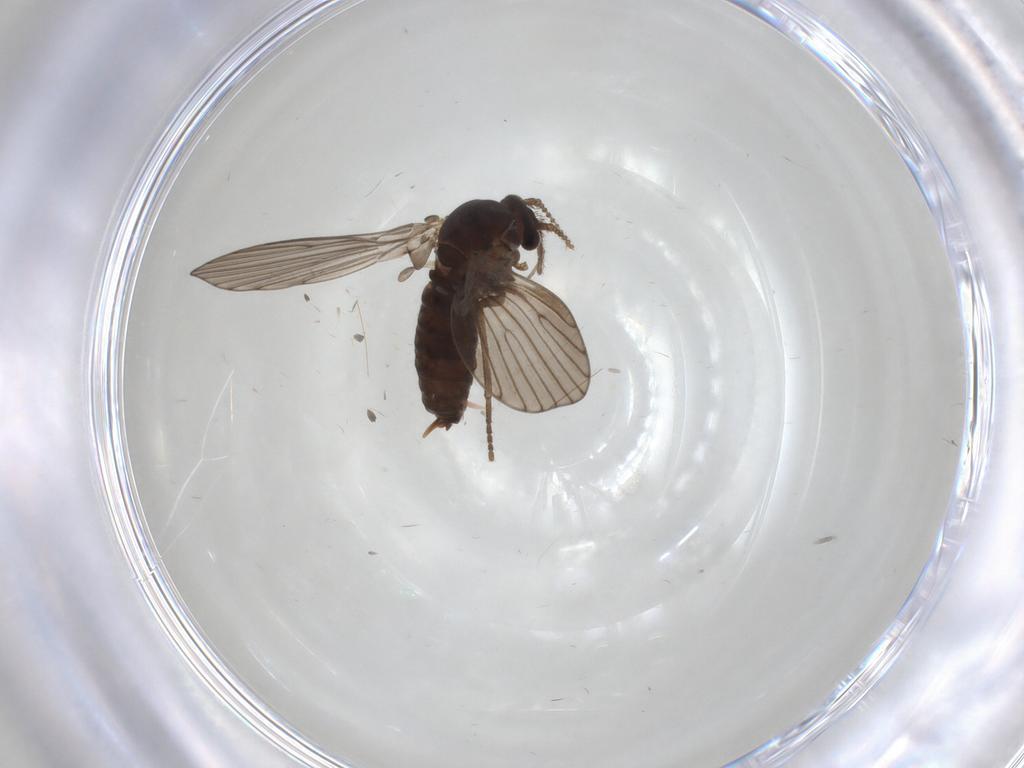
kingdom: Animalia
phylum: Arthropoda
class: Insecta
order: Diptera
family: Psychodidae
